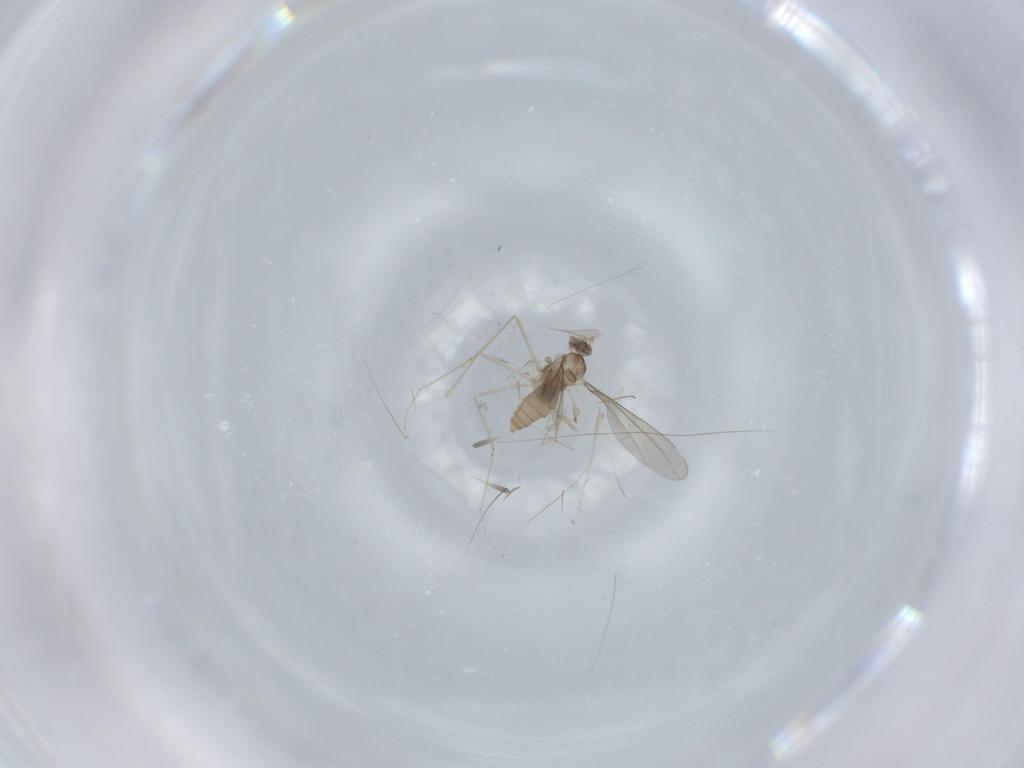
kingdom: Animalia
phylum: Arthropoda
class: Insecta
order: Diptera
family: Cecidomyiidae
